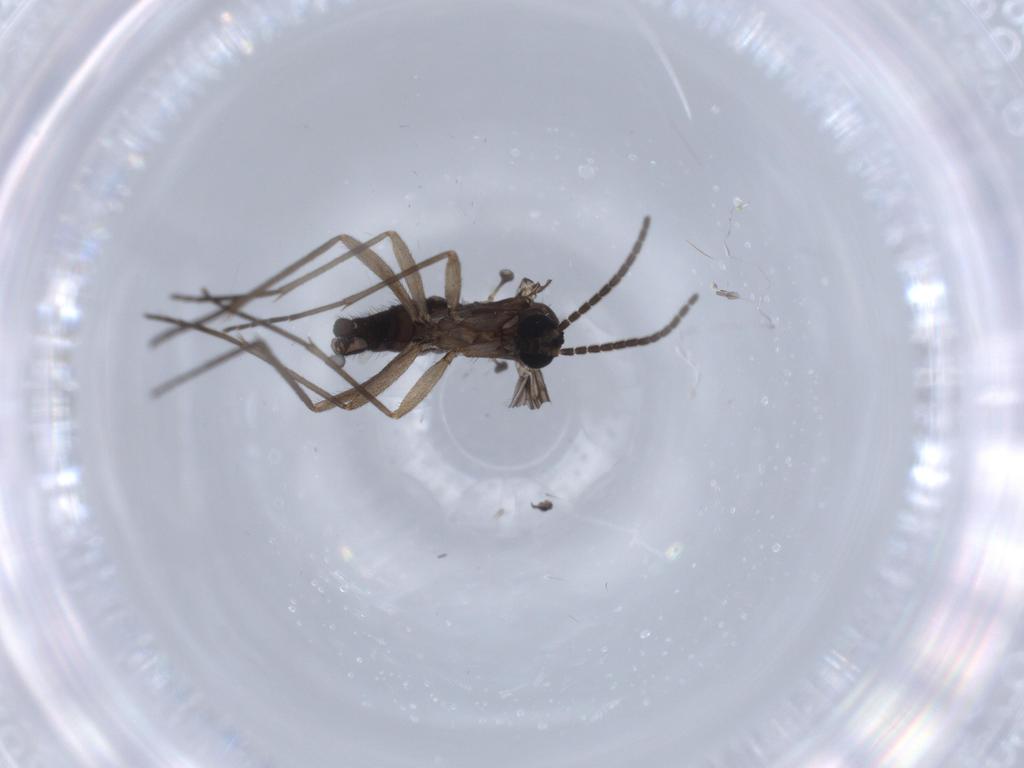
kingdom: Animalia
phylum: Arthropoda
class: Insecta
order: Diptera
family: Sciaridae
